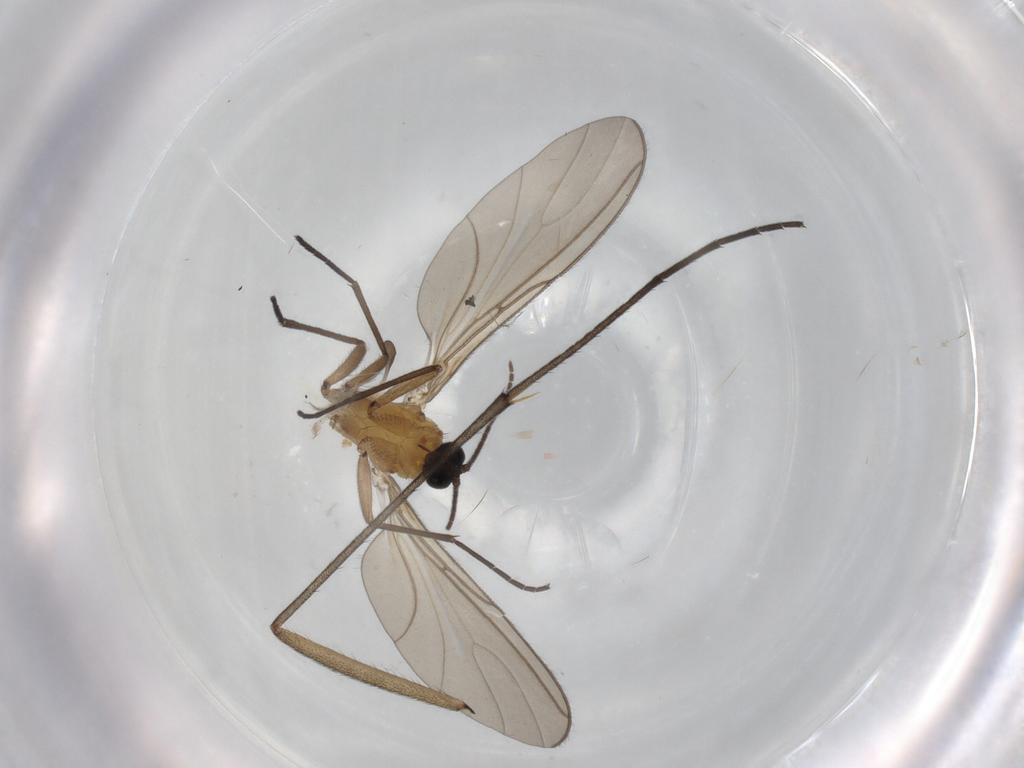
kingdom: Animalia
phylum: Arthropoda
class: Insecta
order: Diptera
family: Sciaridae
